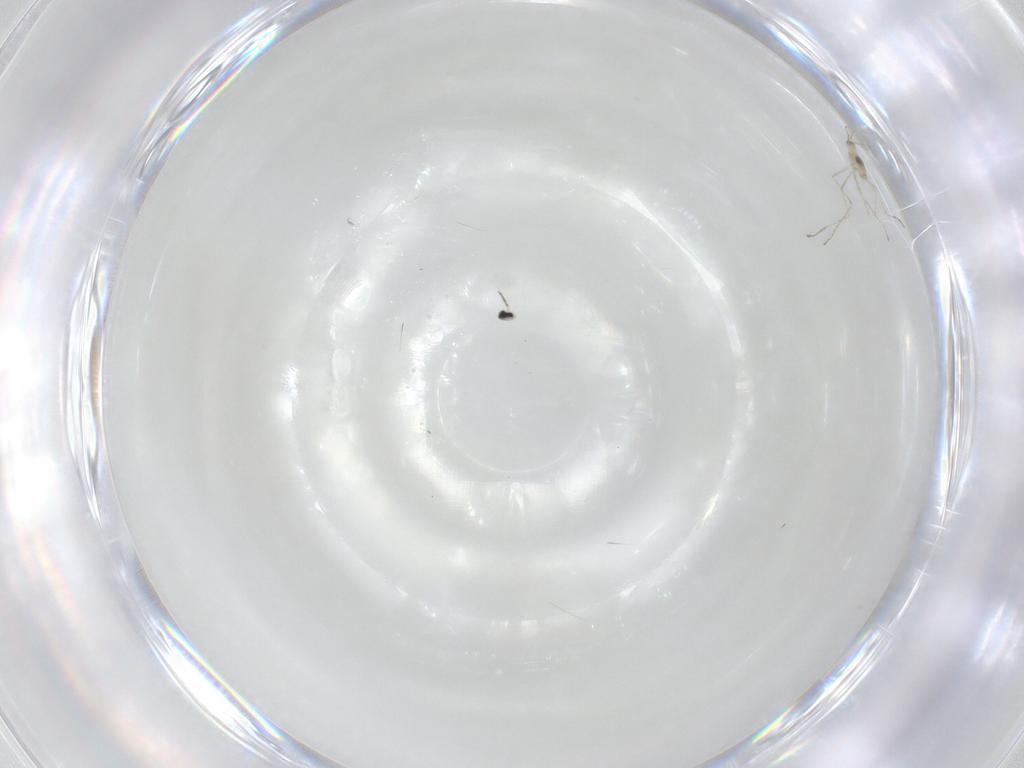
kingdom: Animalia
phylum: Arthropoda
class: Insecta
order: Diptera
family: Cecidomyiidae
